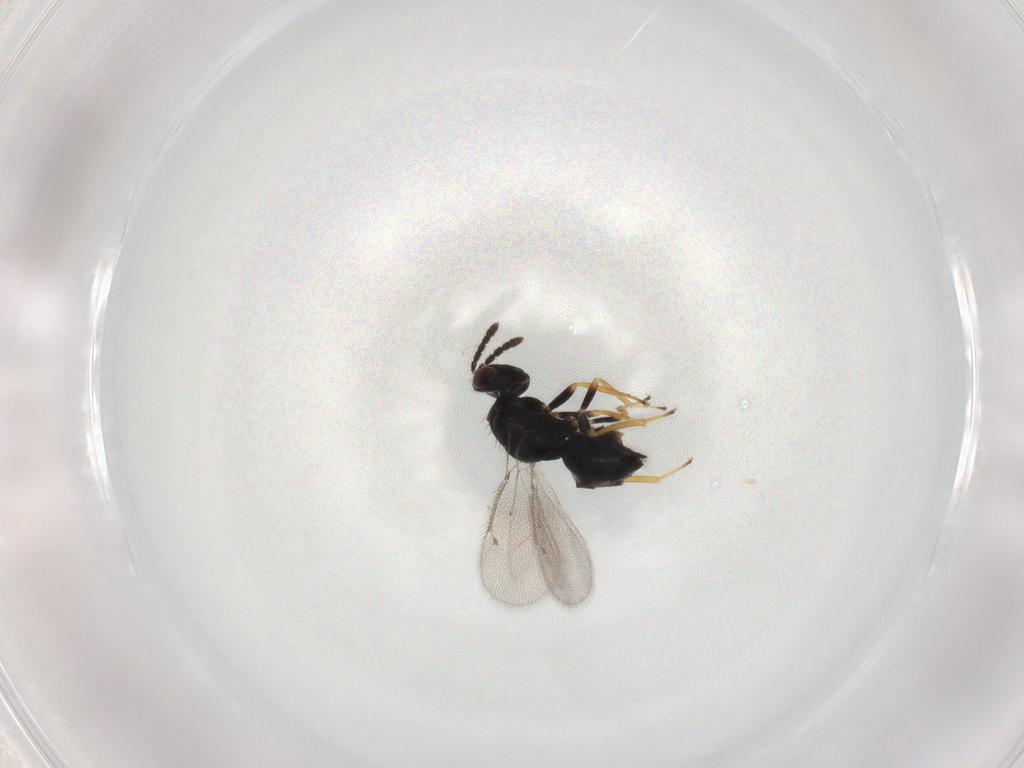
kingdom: Animalia
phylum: Arthropoda
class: Insecta
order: Hymenoptera
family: Eulophidae
